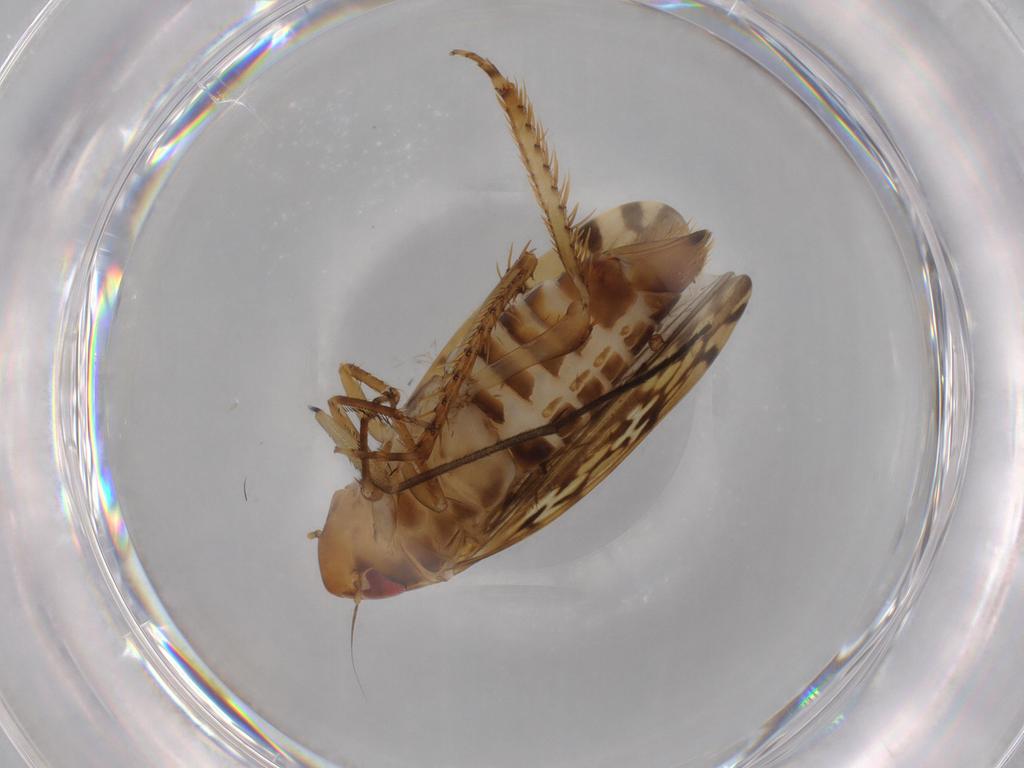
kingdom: Animalia
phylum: Arthropoda
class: Insecta
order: Hemiptera
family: Cicadellidae
